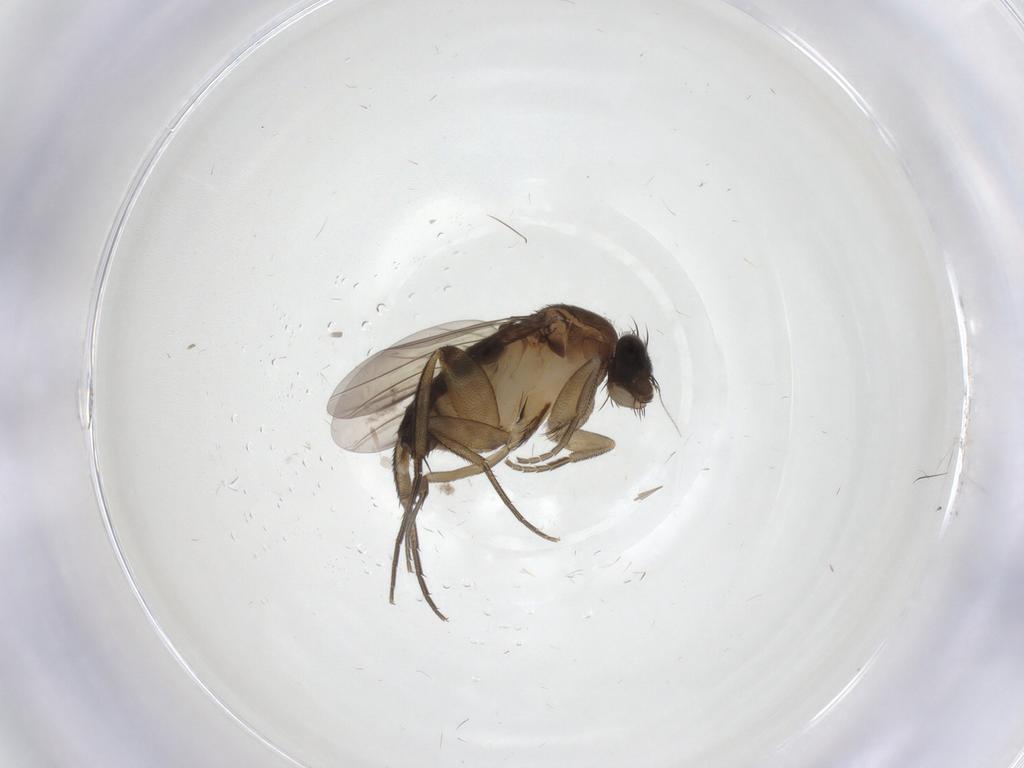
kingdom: Animalia
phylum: Arthropoda
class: Insecta
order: Diptera
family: Phoridae
